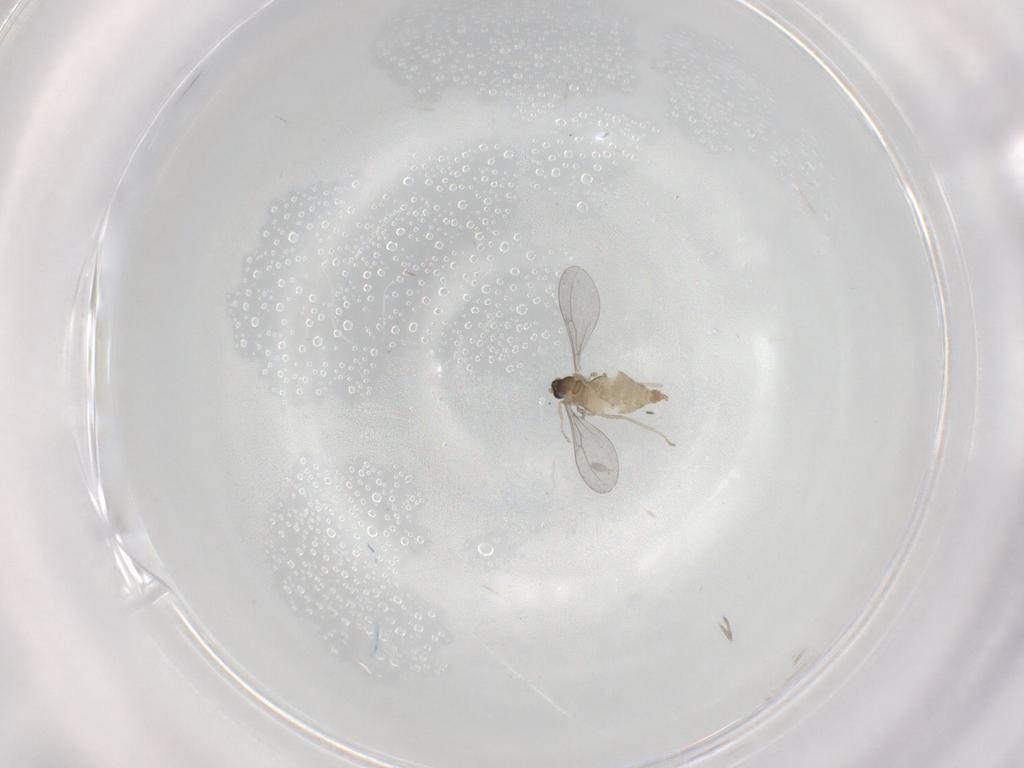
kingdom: Animalia
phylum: Arthropoda
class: Insecta
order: Diptera
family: Cecidomyiidae
